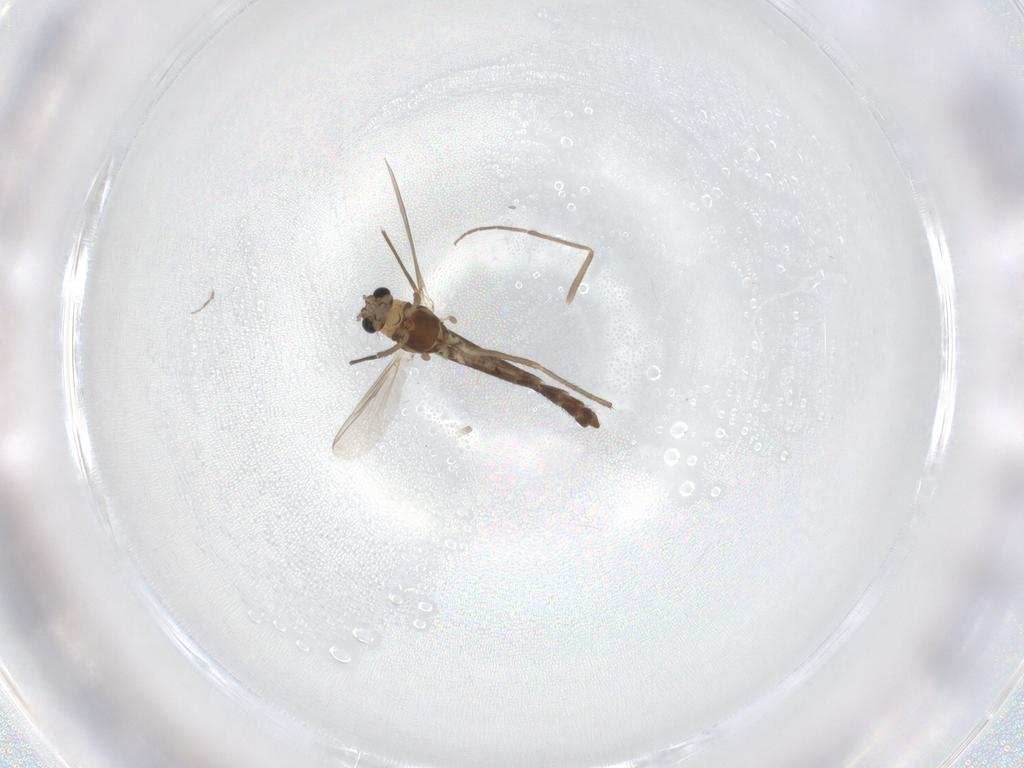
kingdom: Animalia
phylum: Arthropoda
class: Insecta
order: Diptera
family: Chironomidae
